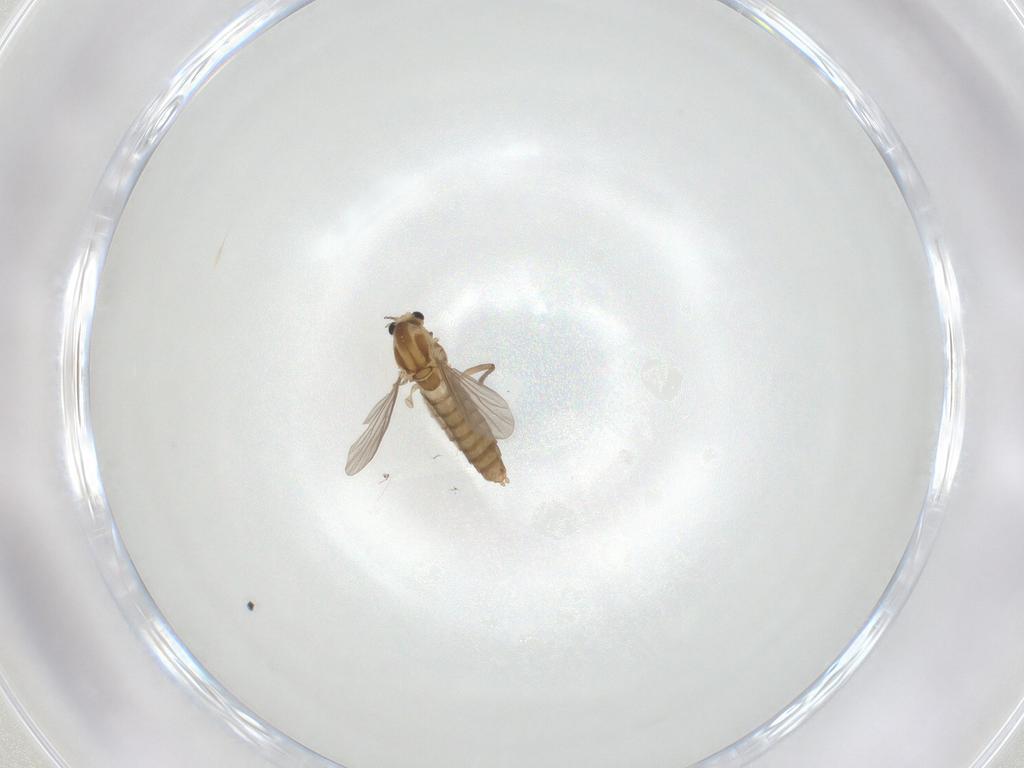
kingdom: Animalia
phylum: Arthropoda
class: Insecta
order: Diptera
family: Chironomidae
